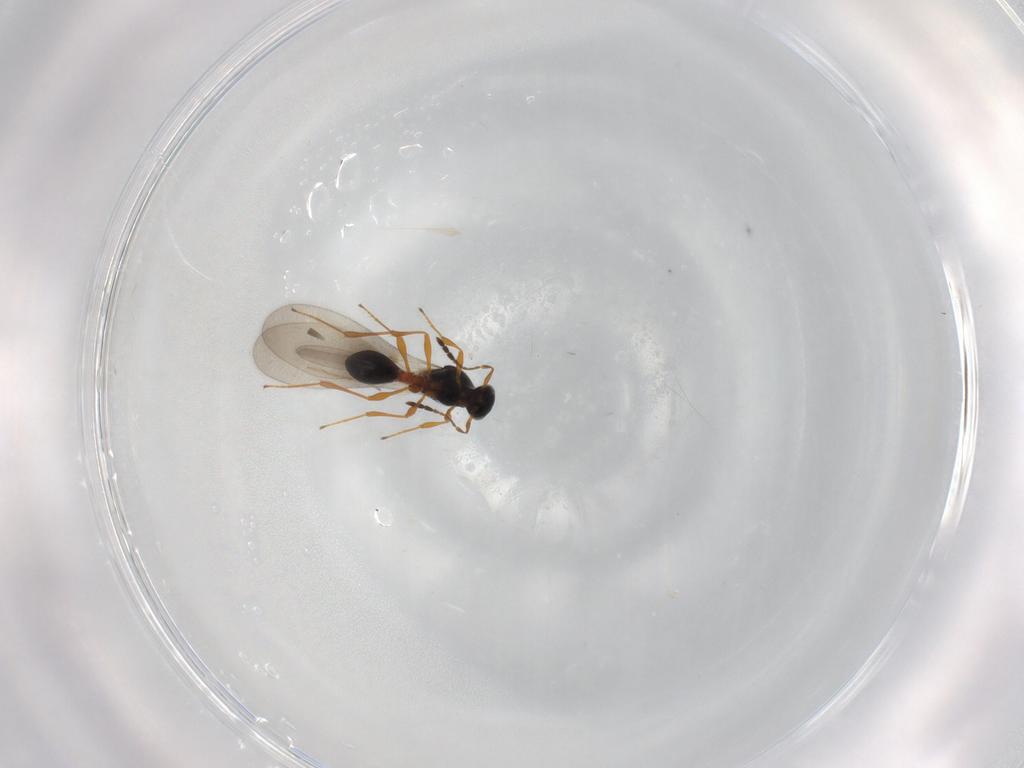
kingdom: Animalia
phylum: Arthropoda
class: Insecta
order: Hymenoptera
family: Platygastridae
